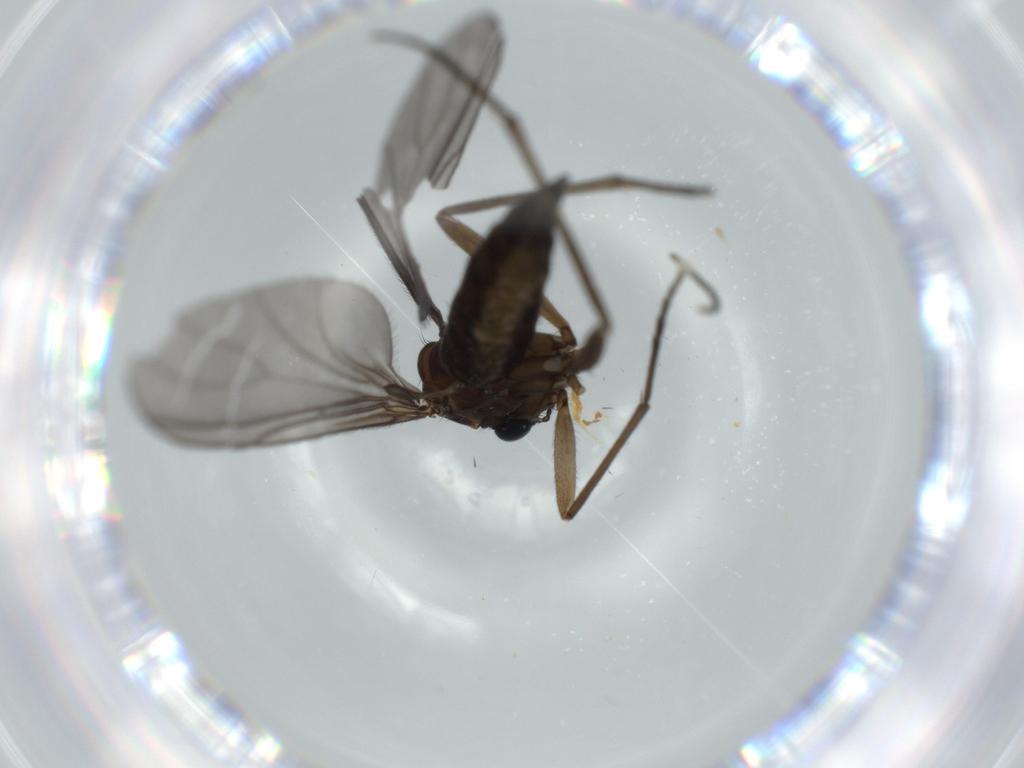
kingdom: Animalia
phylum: Arthropoda
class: Insecta
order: Diptera
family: Sciaridae
